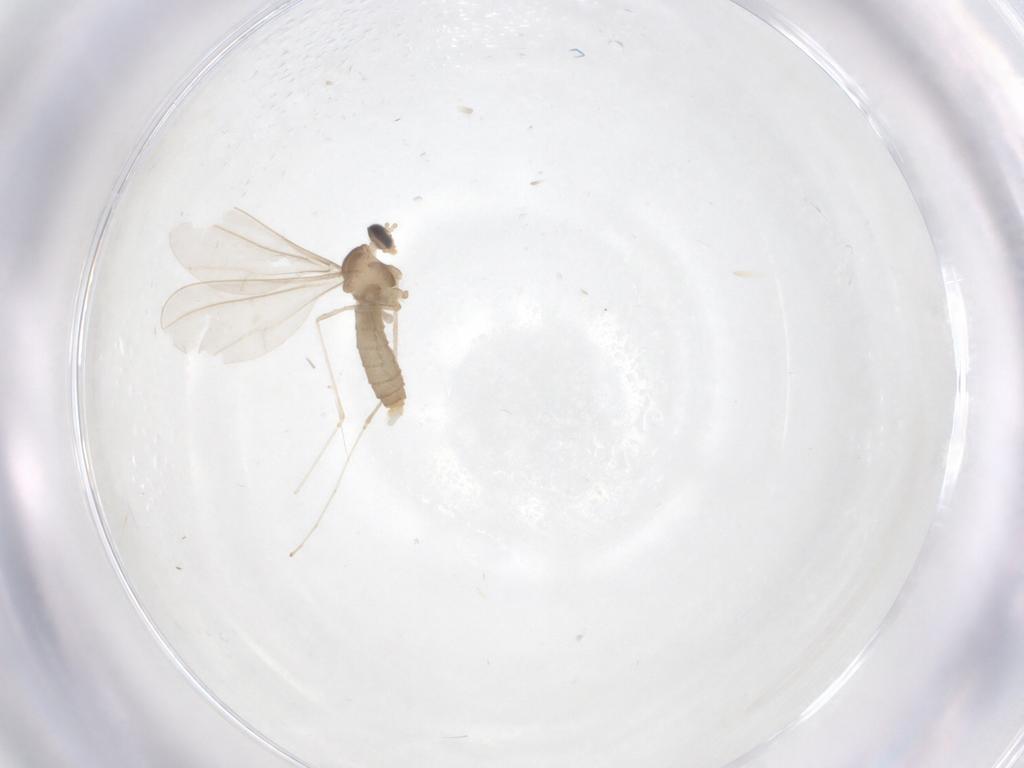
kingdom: Animalia
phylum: Arthropoda
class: Insecta
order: Diptera
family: Cecidomyiidae
